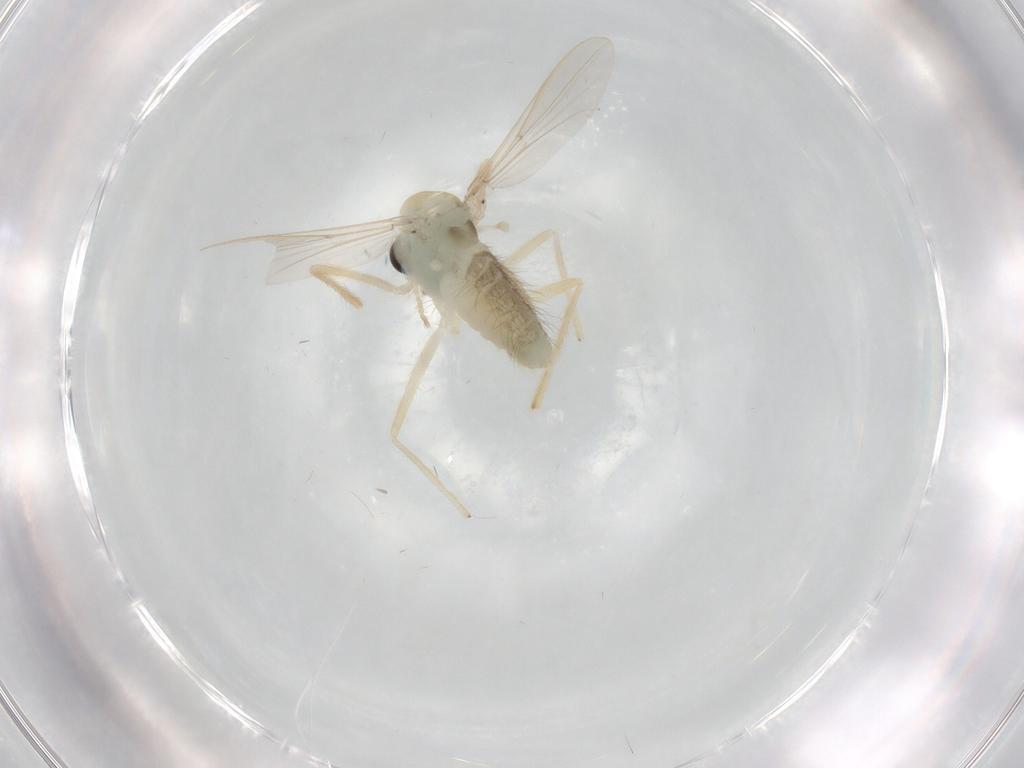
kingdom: Animalia
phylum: Arthropoda
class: Insecta
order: Diptera
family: Chironomidae
